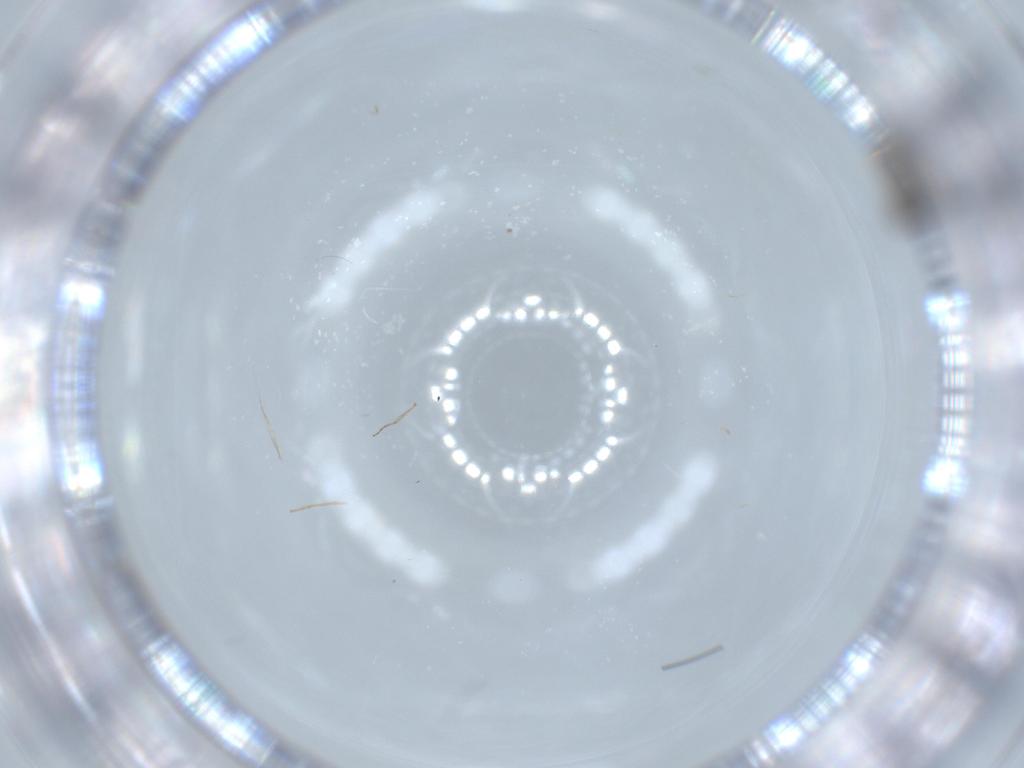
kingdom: Animalia
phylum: Arthropoda
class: Insecta
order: Diptera
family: Ceratopogonidae
